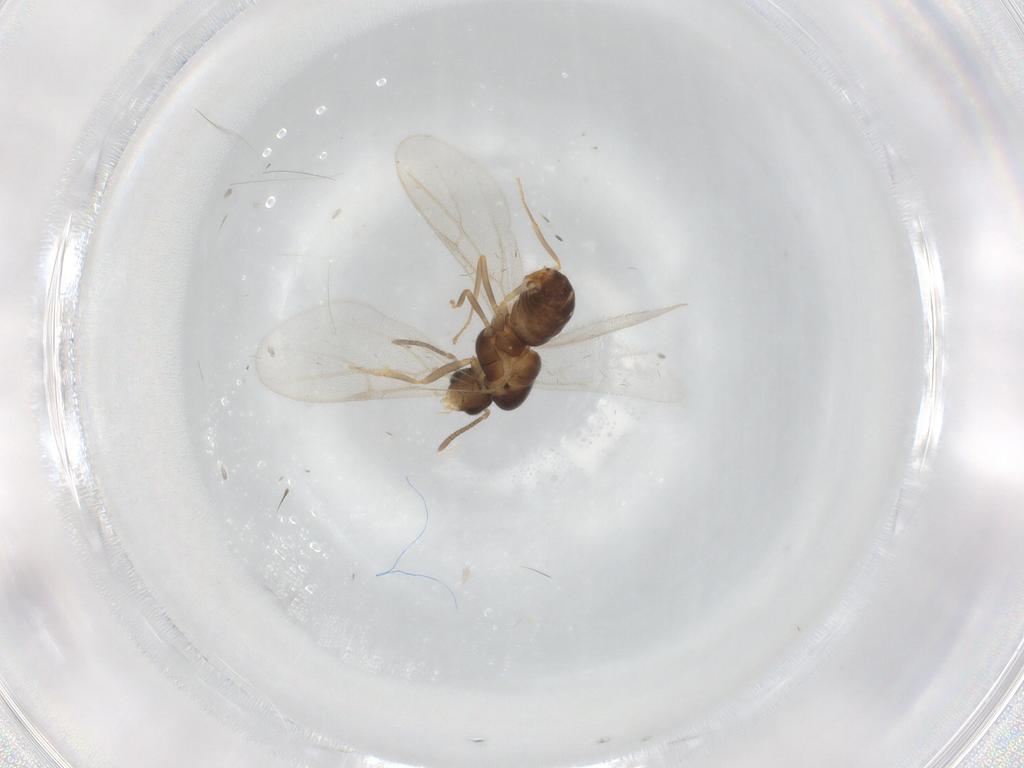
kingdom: Animalia
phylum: Arthropoda
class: Insecta
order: Hymenoptera
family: Formicidae
